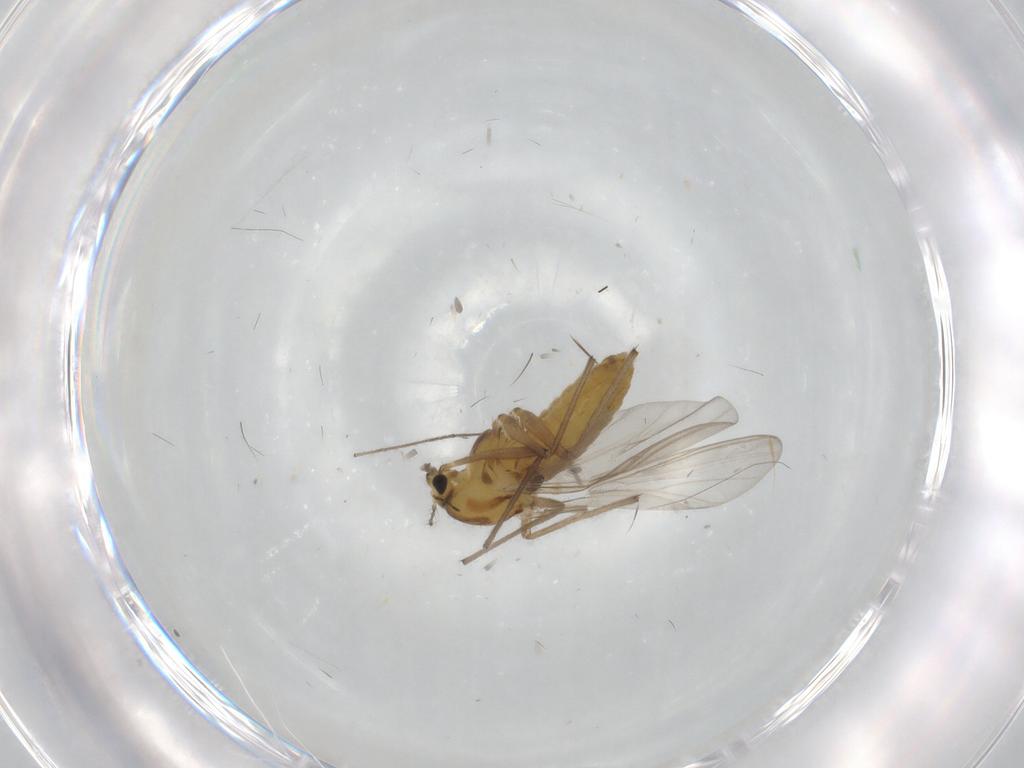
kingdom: Animalia
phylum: Arthropoda
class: Insecta
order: Diptera
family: Chironomidae
